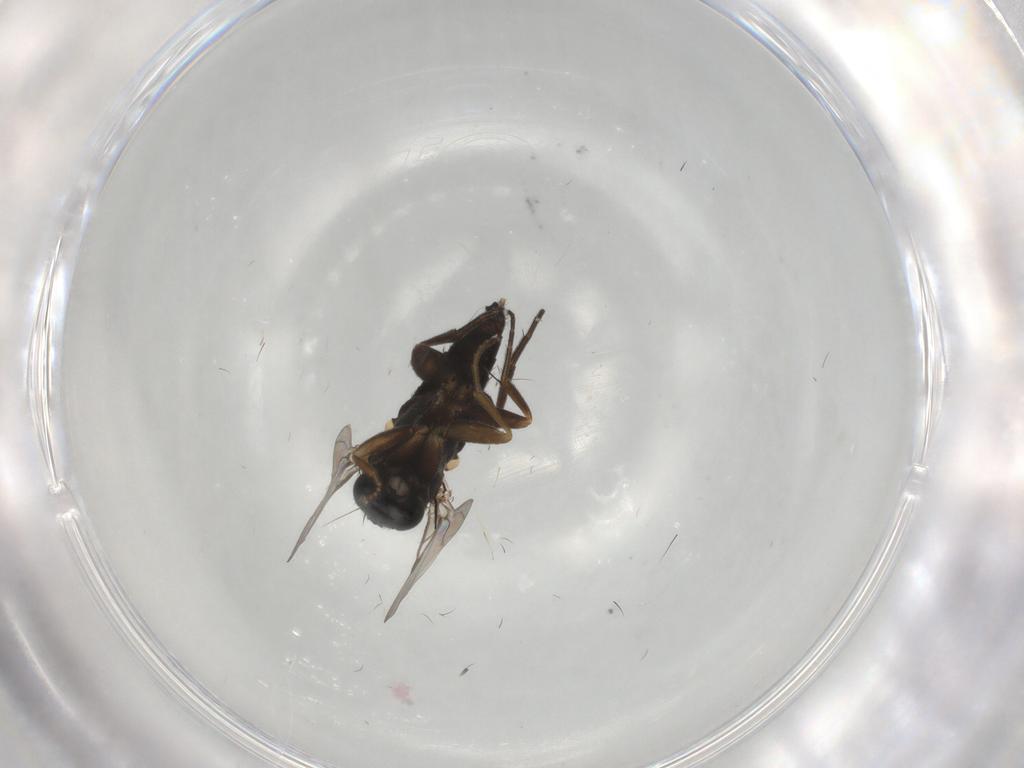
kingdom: Animalia
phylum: Arthropoda
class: Insecta
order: Diptera
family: Phoridae
